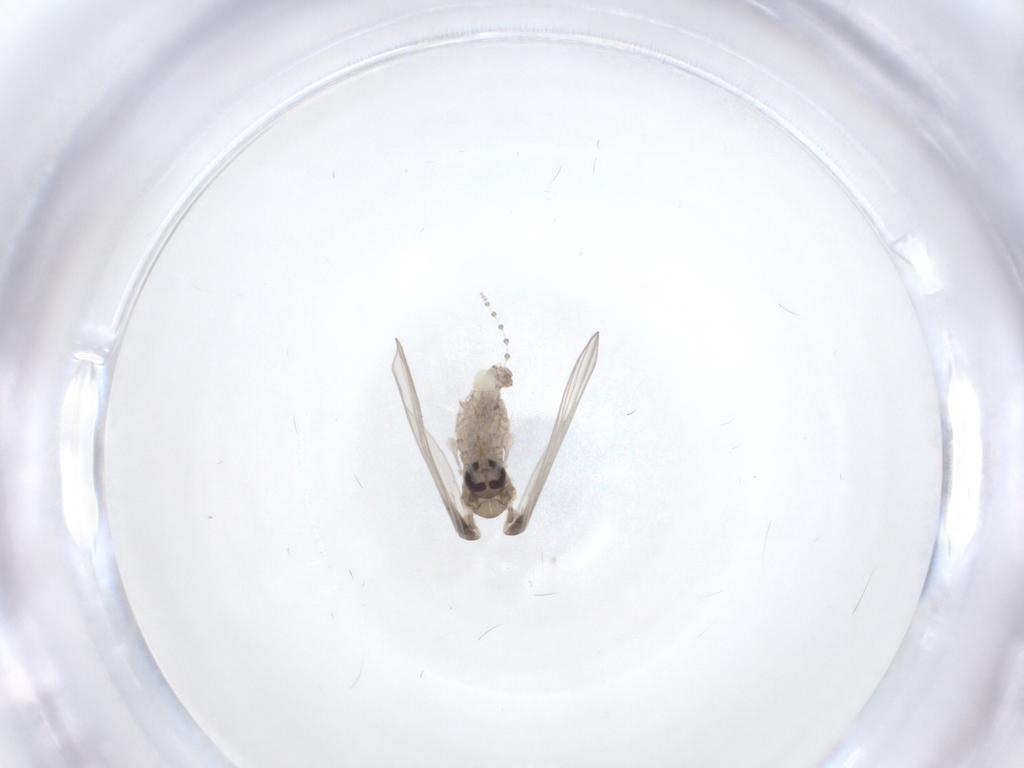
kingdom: Animalia
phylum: Arthropoda
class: Insecta
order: Diptera
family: Psychodidae
